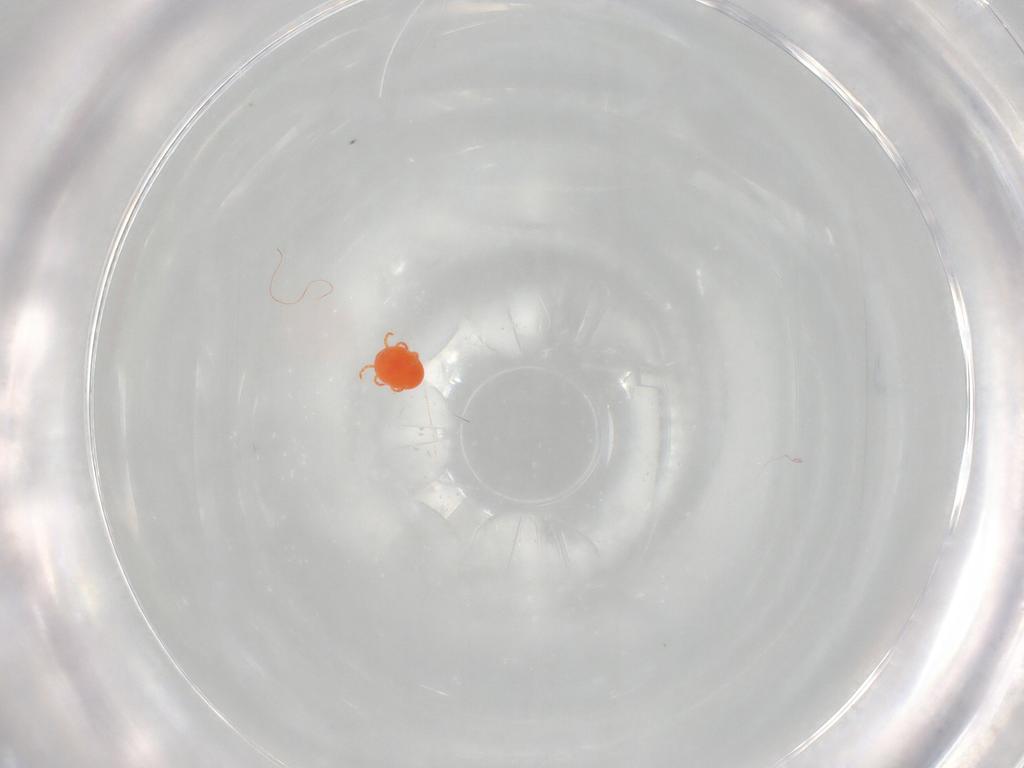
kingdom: Animalia
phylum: Arthropoda
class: Arachnida
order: Trombidiformes
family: Hydryphantidae
